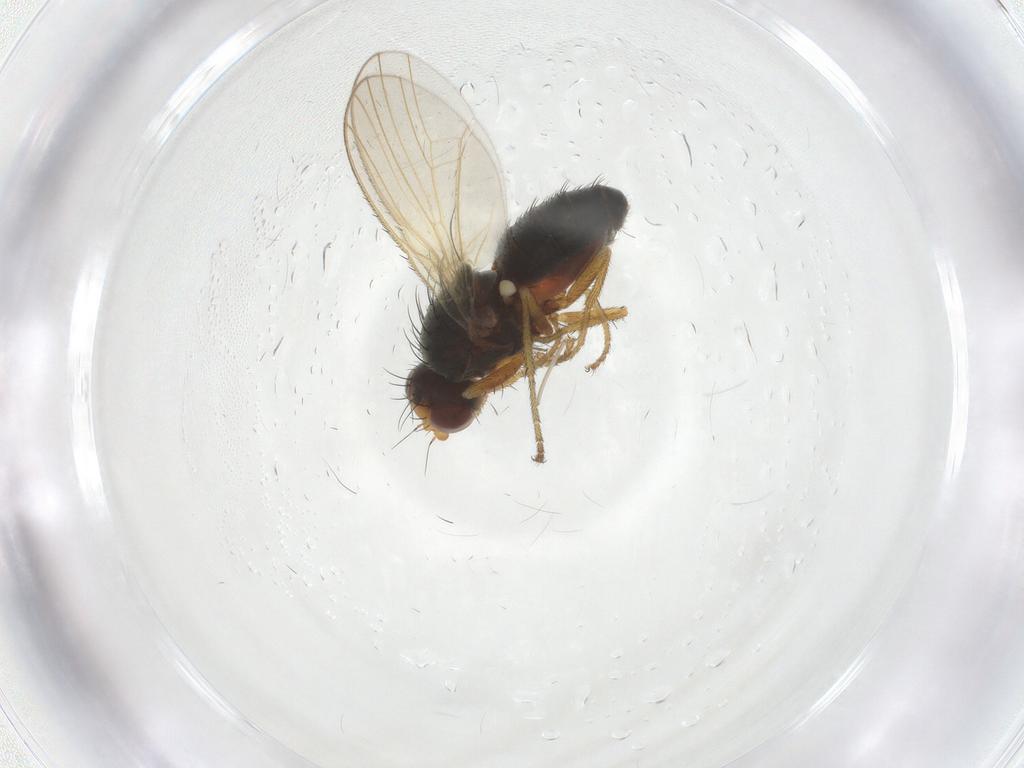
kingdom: Animalia
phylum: Arthropoda
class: Insecta
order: Diptera
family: Heleomyzidae
